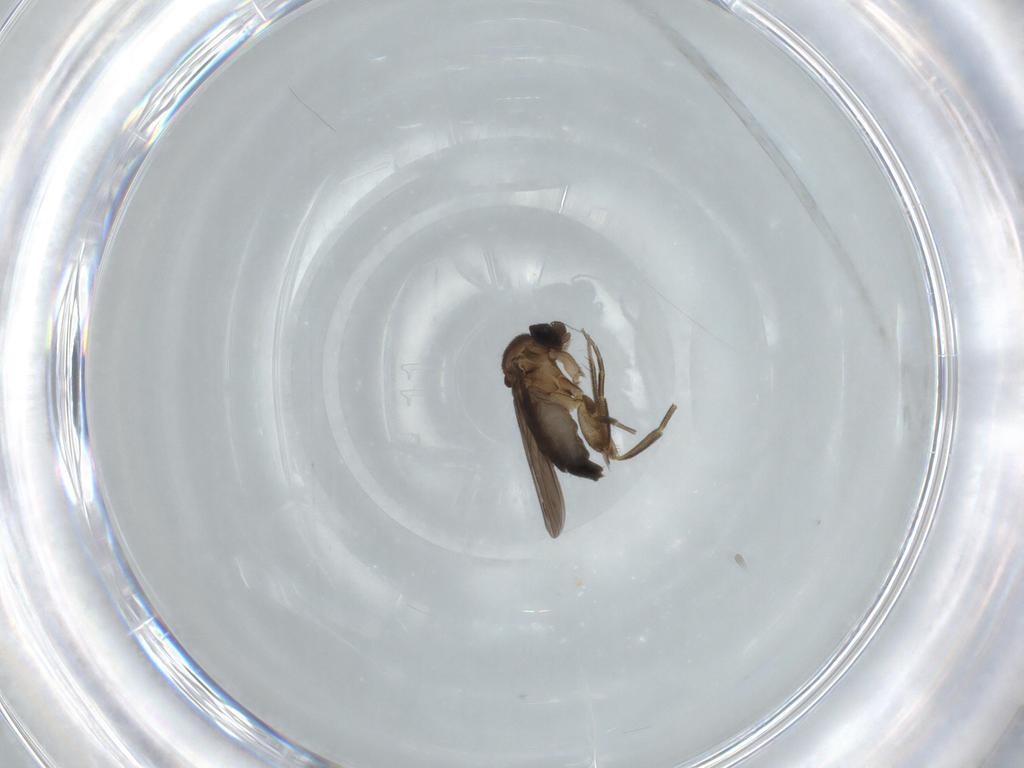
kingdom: Animalia
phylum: Arthropoda
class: Insecta
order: Diptera
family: Phoridae
